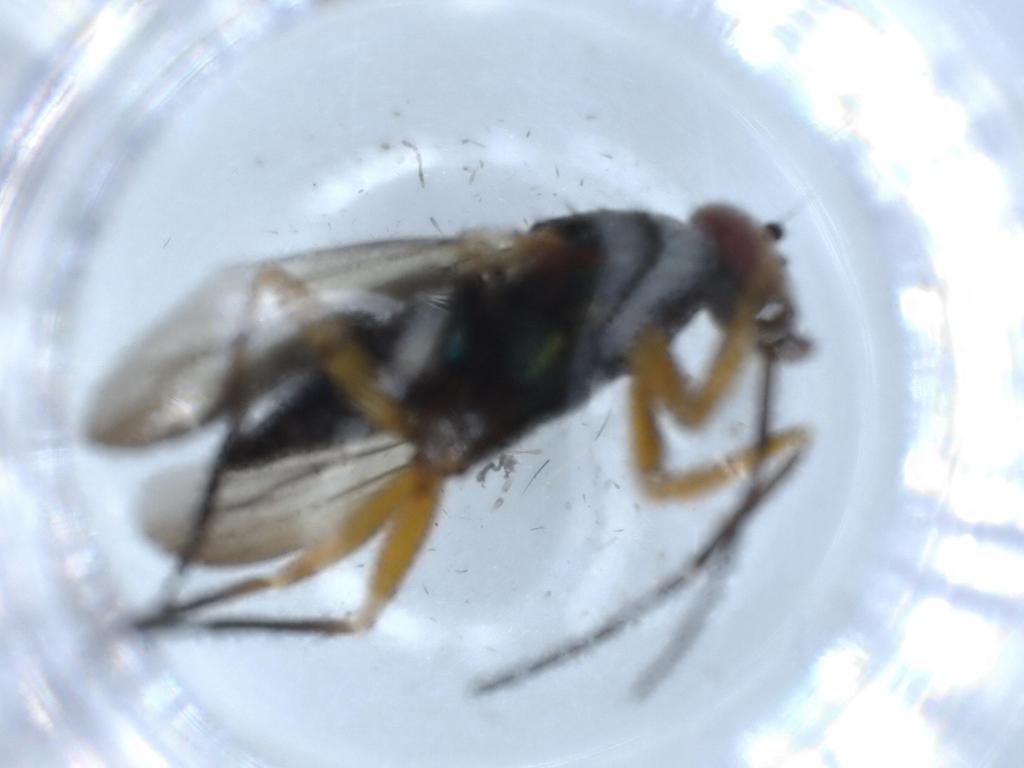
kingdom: Animalia
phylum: Arthropoda
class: Insecta
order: Diptera
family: Dolichopodidae
